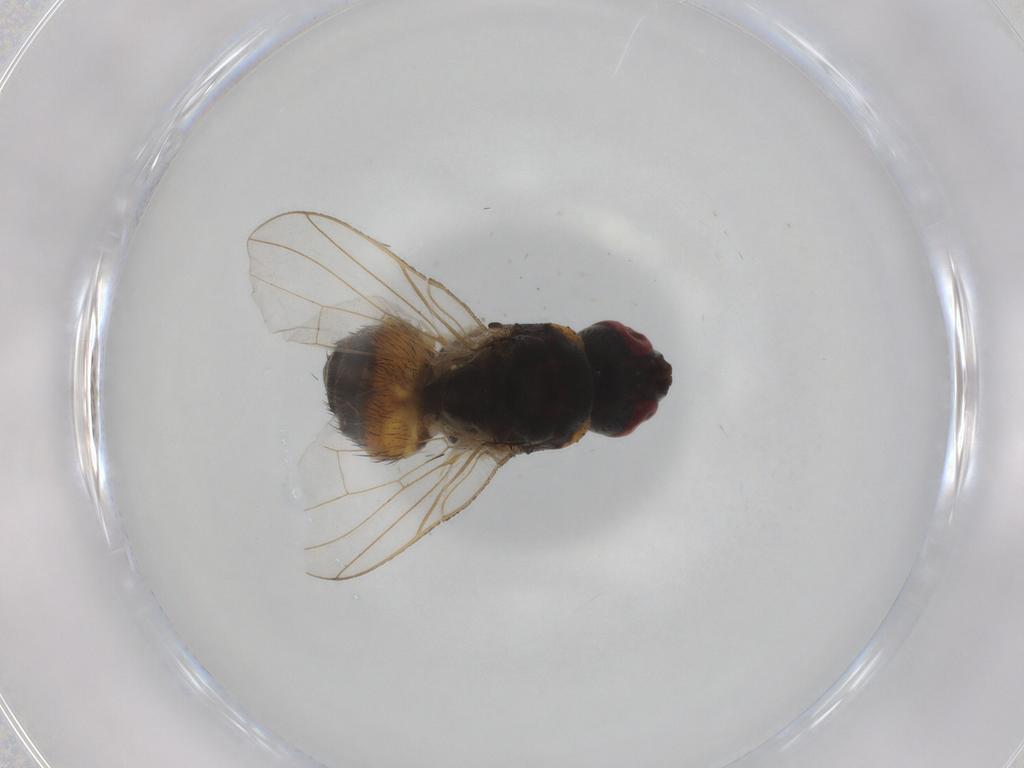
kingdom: Animalia
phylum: Arthropoda
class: Insecta
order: Diptera
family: Muscidae
